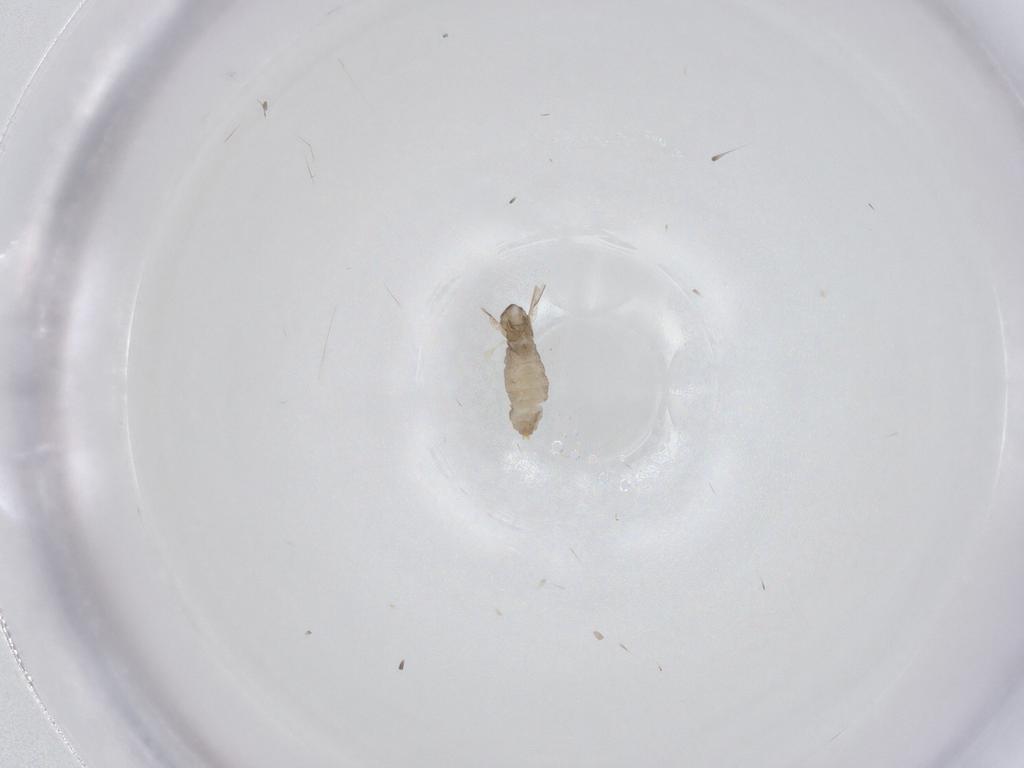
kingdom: Animalia
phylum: Arthropoda
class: Insecta
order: Diptera
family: Cecidomyiidae
